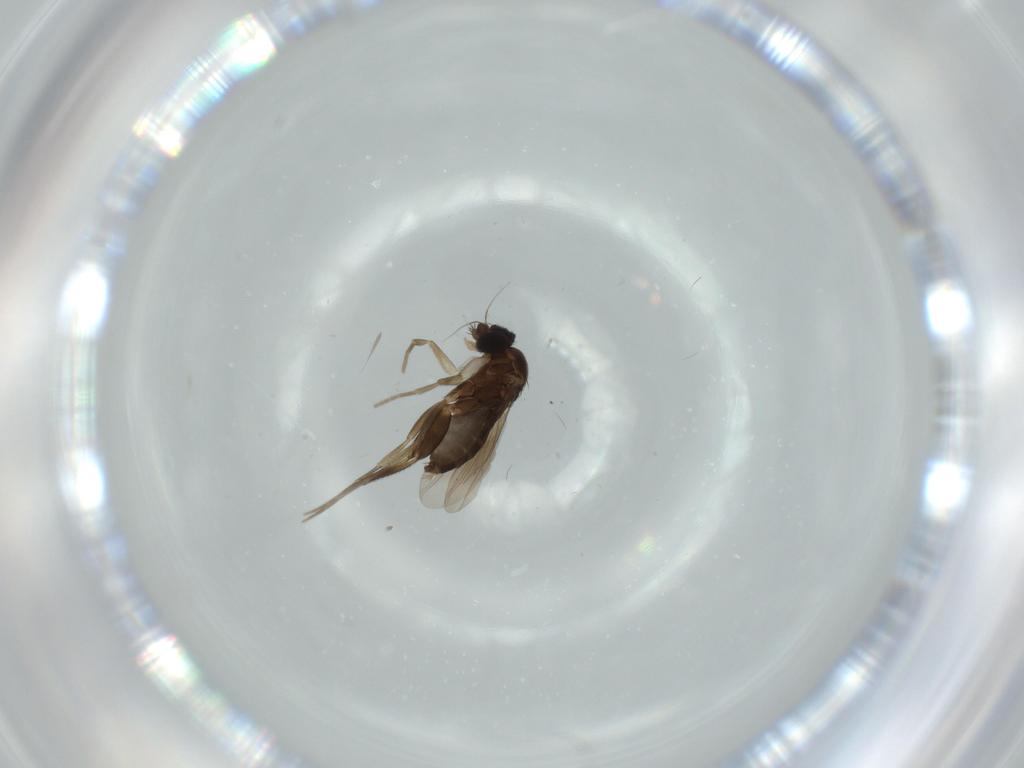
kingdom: Animalia
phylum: Arthropoda
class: Insecta
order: Diptera
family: Phoridae
